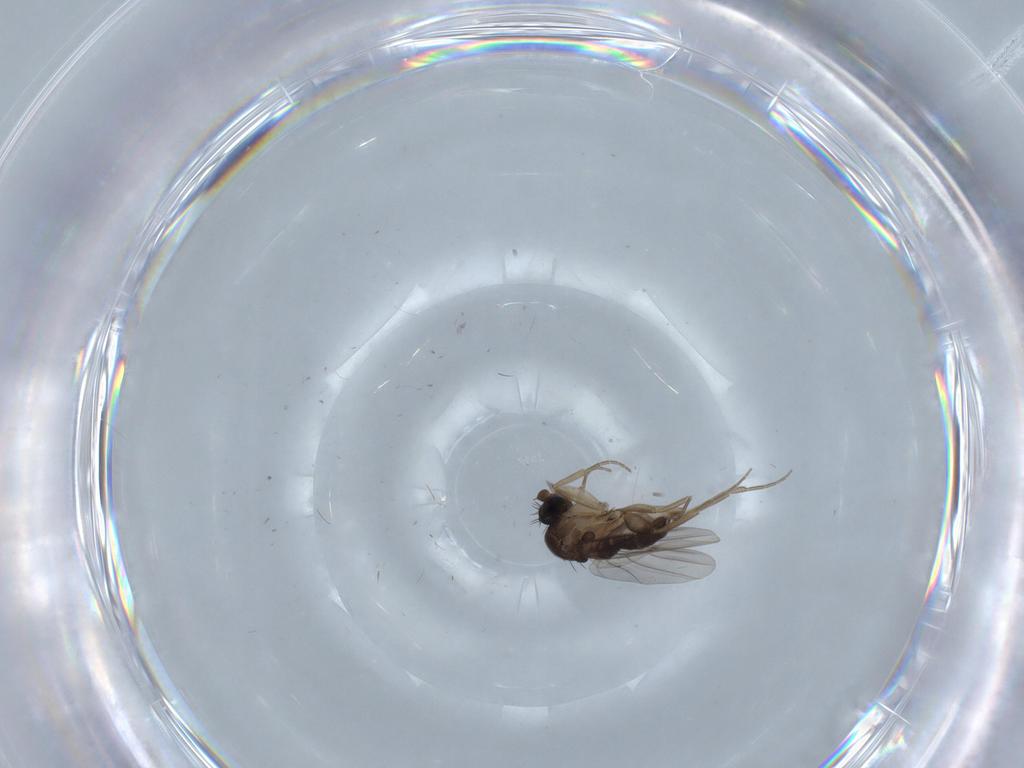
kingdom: Animalia
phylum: Arthropoda
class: Insecta
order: Diptera
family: Phoridae
